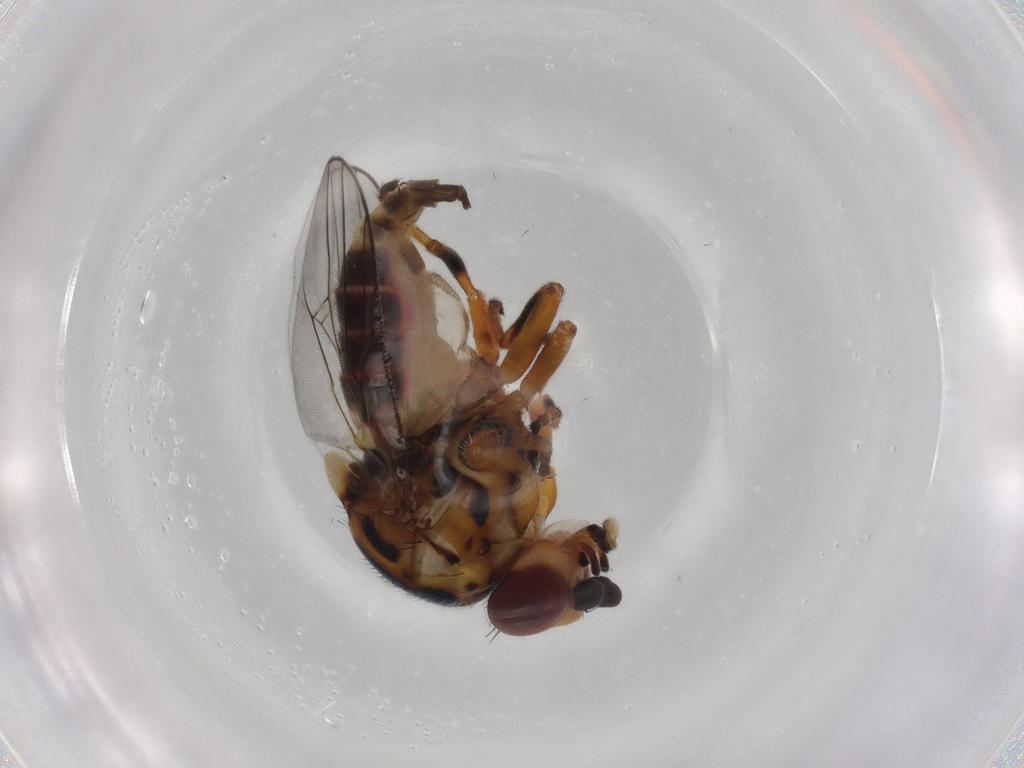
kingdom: Animalia
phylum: Arthropoda
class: Insecta
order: Diptera
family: Chloropidae
